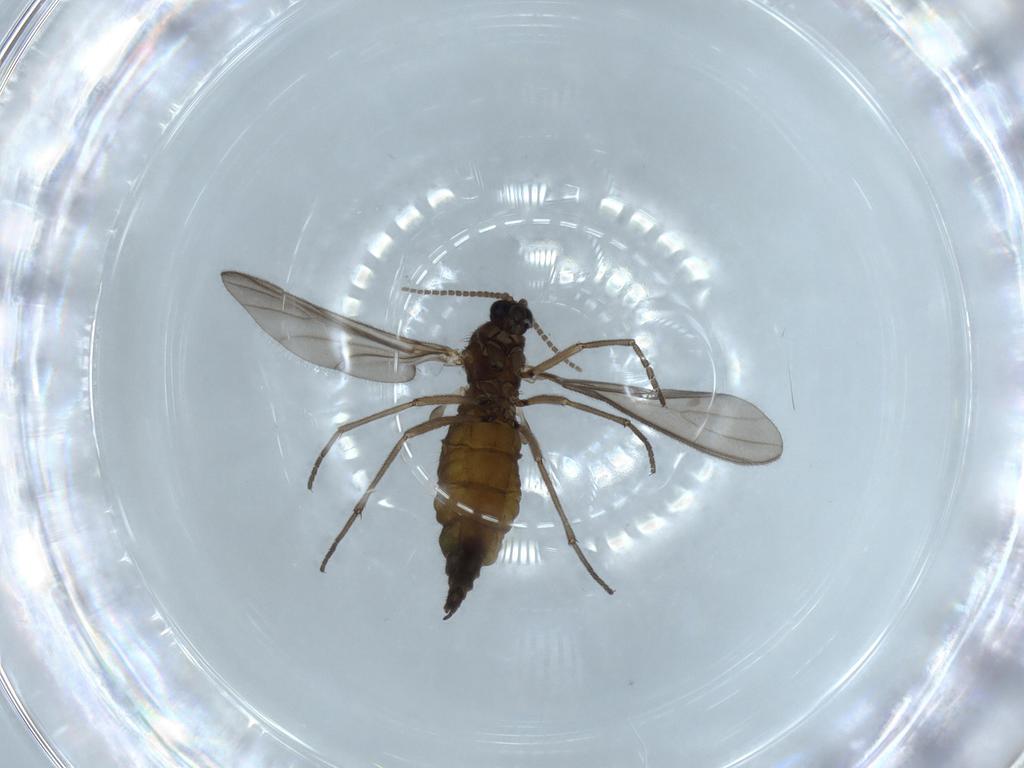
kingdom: Animalia
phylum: Arthropoda
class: Insecta
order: Diptera
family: Sciaridae
